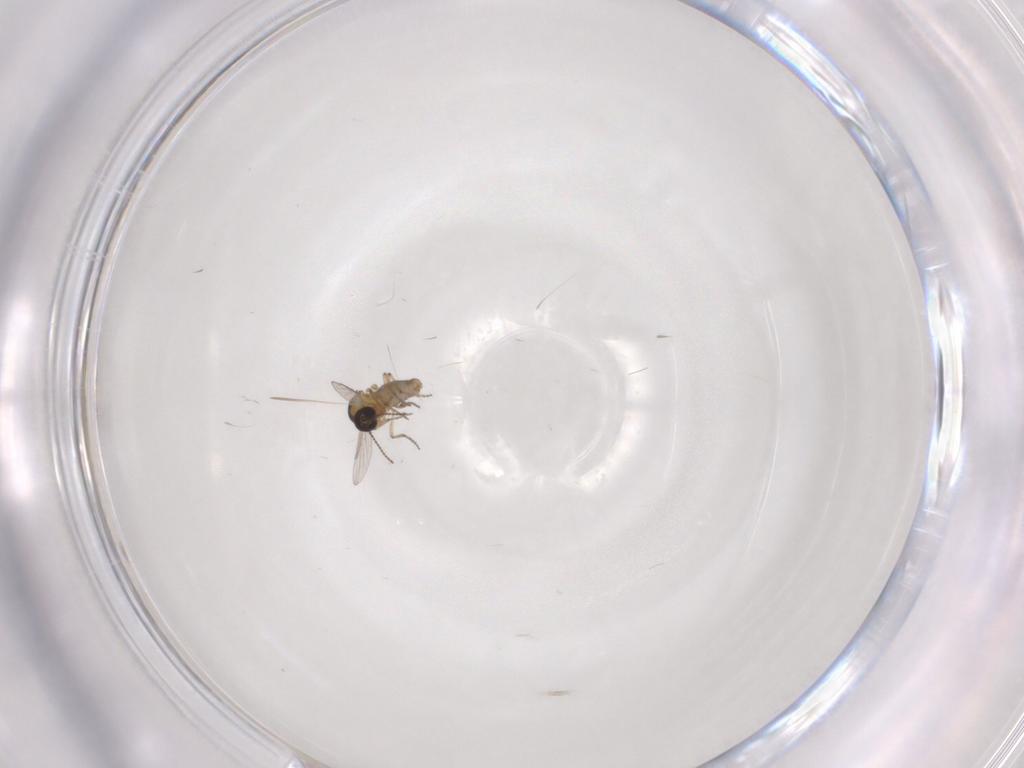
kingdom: Animalia
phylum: Arthropoda
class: Insecta
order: Diptera
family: Ceratopogonidae
